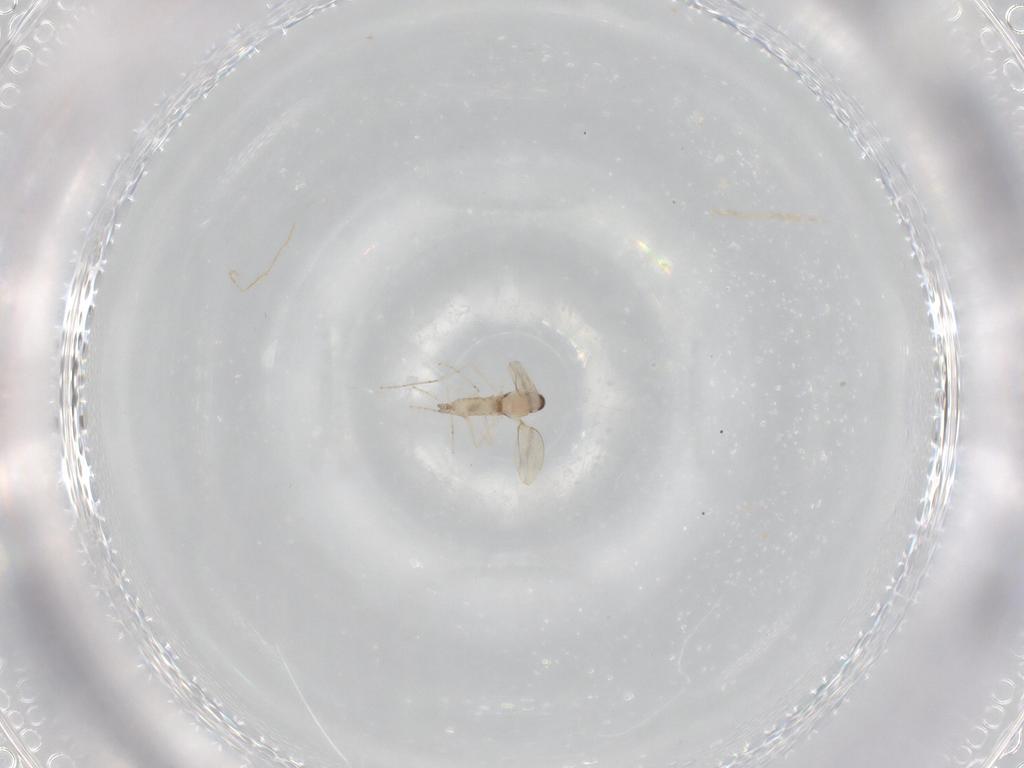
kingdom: Animalia
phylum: Arthropoda
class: Insecta
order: Diptera
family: Cecidomyiidae
